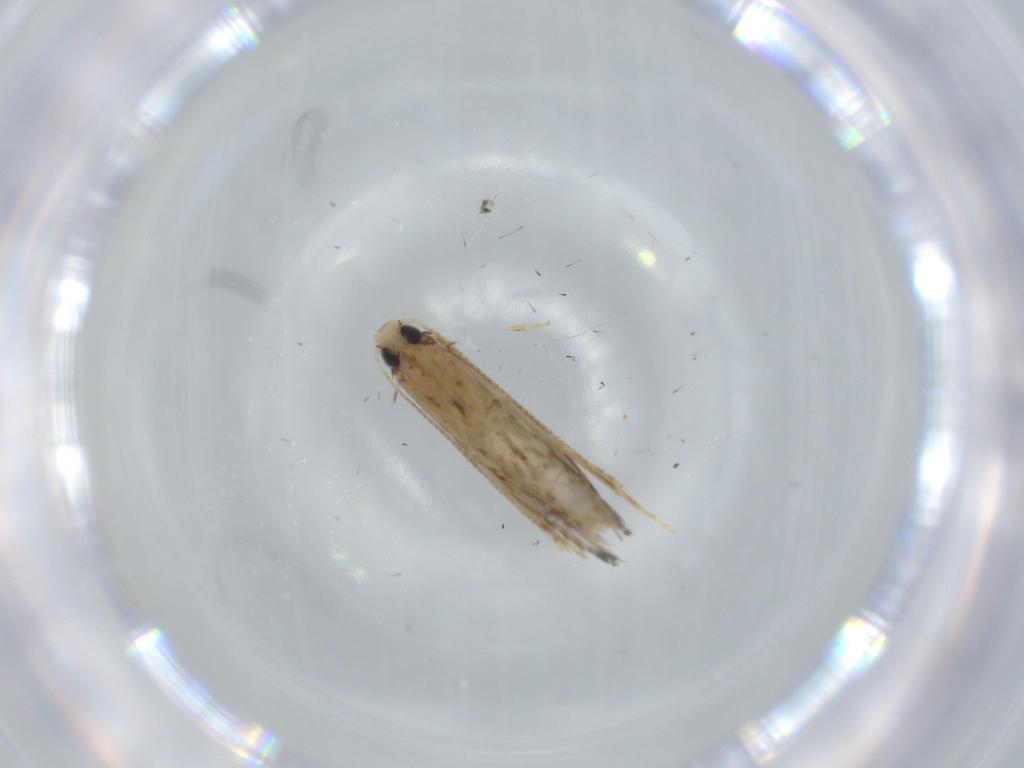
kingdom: Animalia
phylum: Arthropoda
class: Insecta
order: Lepidoptera
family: Gracillariidae
